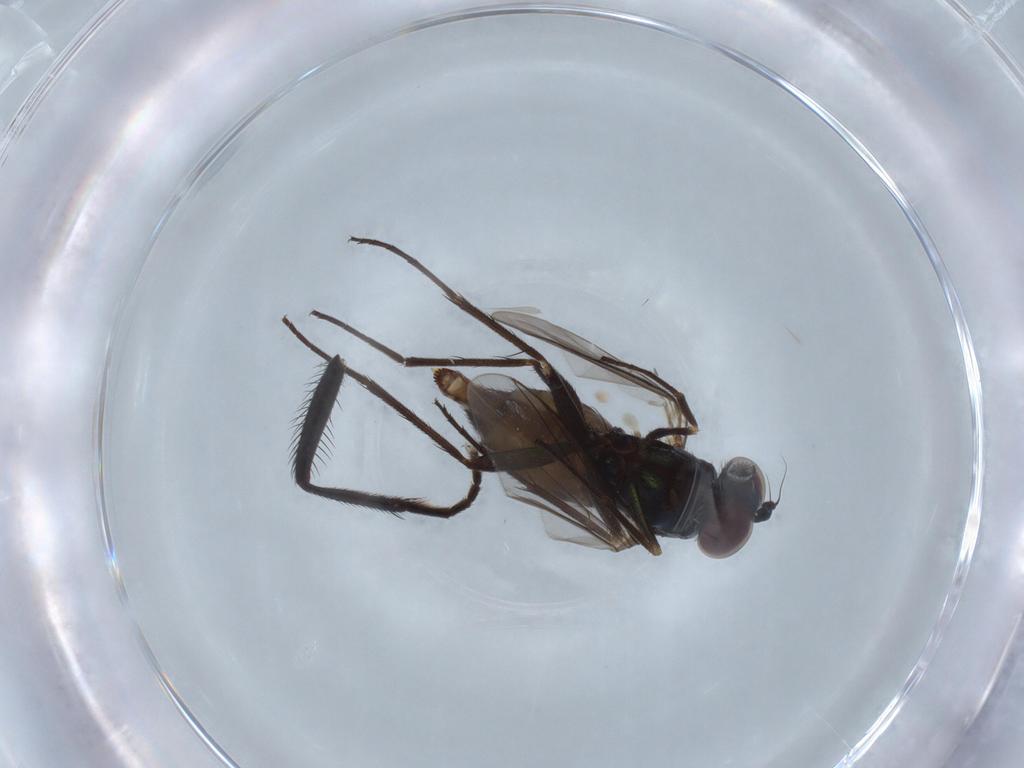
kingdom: Animalia
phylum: Arthropoda
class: Insecta
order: Diptera
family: Dolichopodidae
